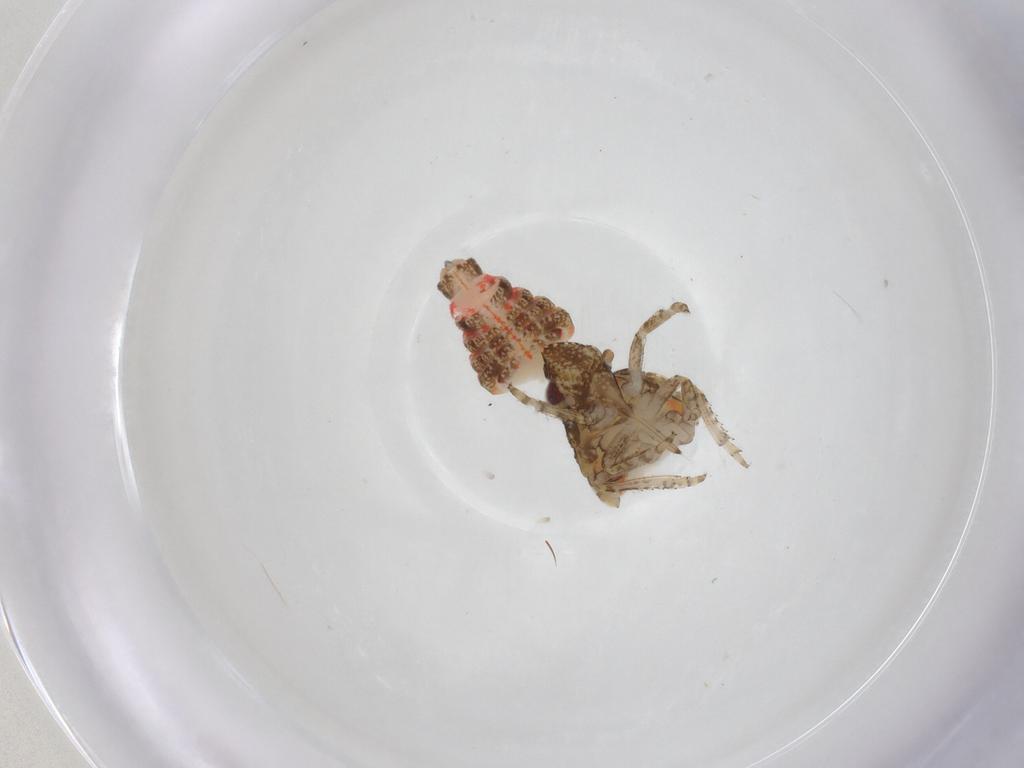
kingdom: Animalia
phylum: Arthropoda
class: Insecta
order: Hemiptera
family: Nogodinidae
